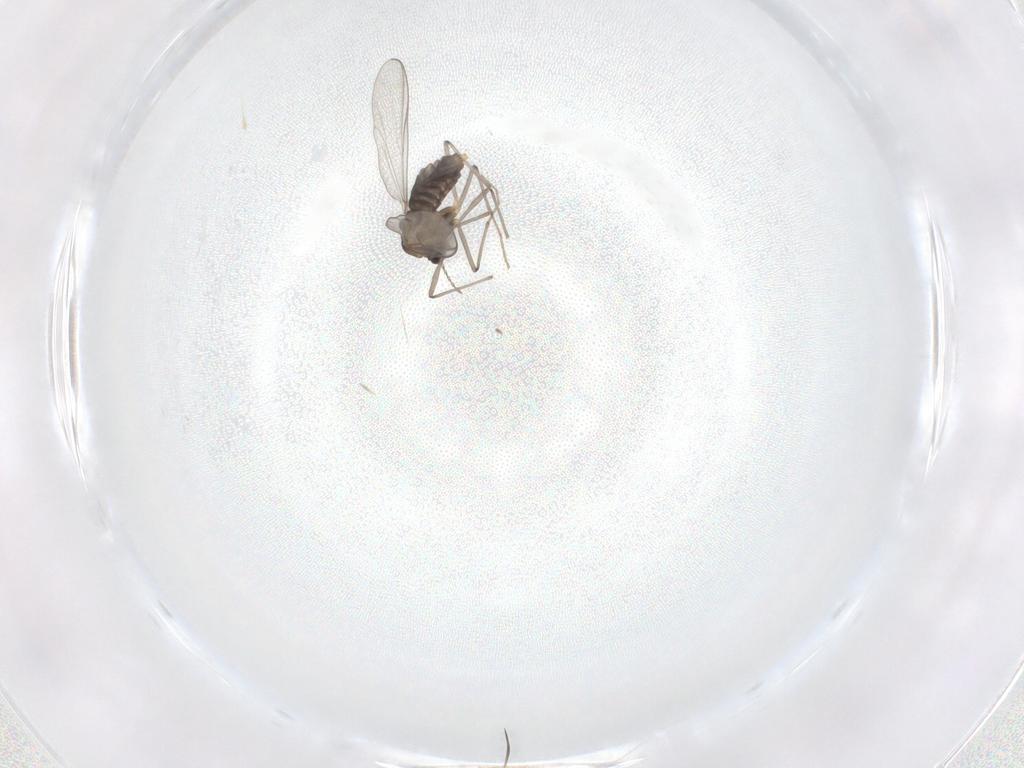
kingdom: Animalia
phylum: Arthropoda
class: Insecta
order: Diptera
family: Chironomidae
